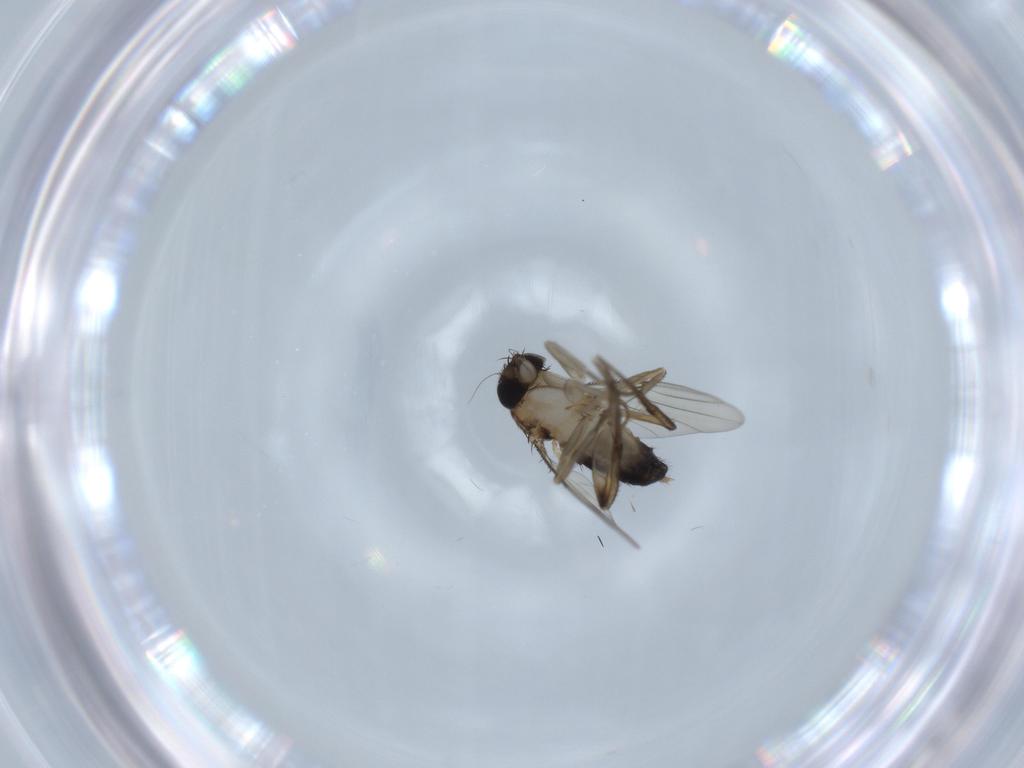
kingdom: Animalia
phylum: Arthropoda
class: Insecta
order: Diptera
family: Phoridae
